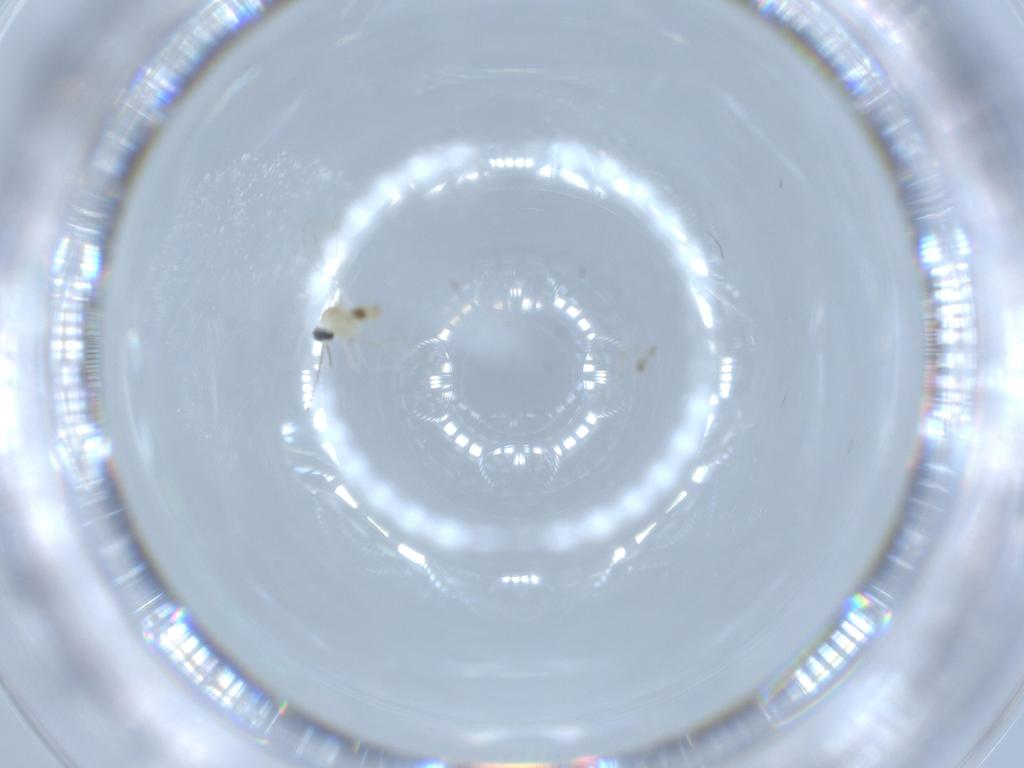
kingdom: Animalia
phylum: Arthropoda
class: Insecta
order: Diptera
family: Cecidomyiidae
